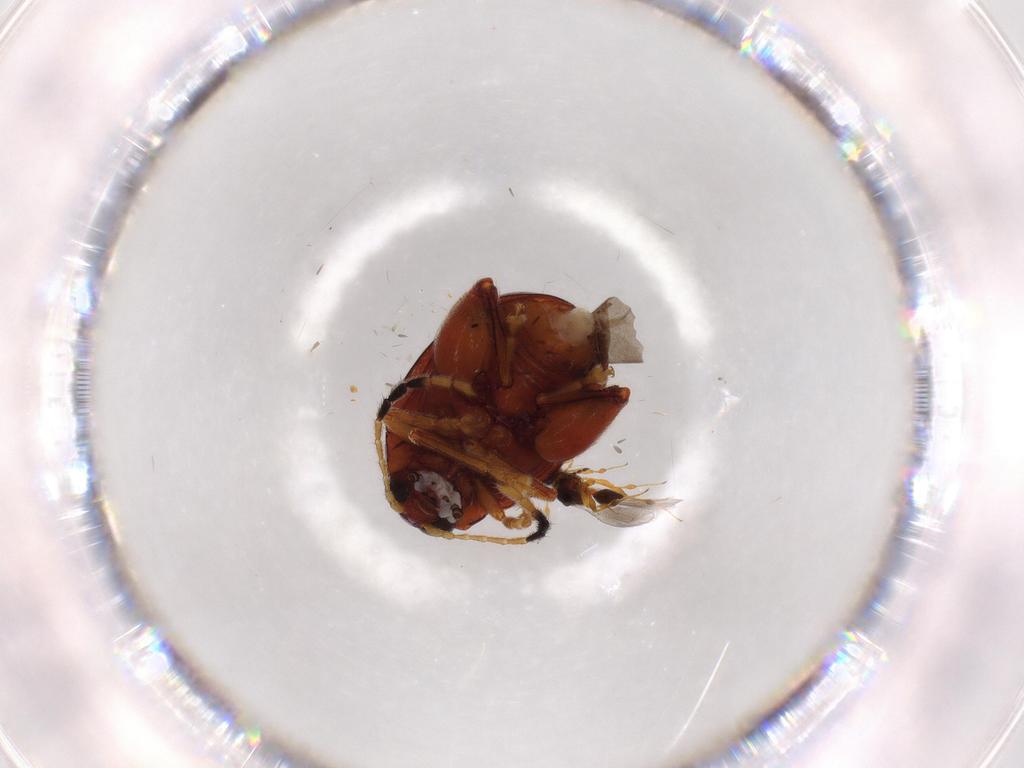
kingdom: Animalia
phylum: Arthropoda
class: Insecta
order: Coleoptera
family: Chrysomelidae
